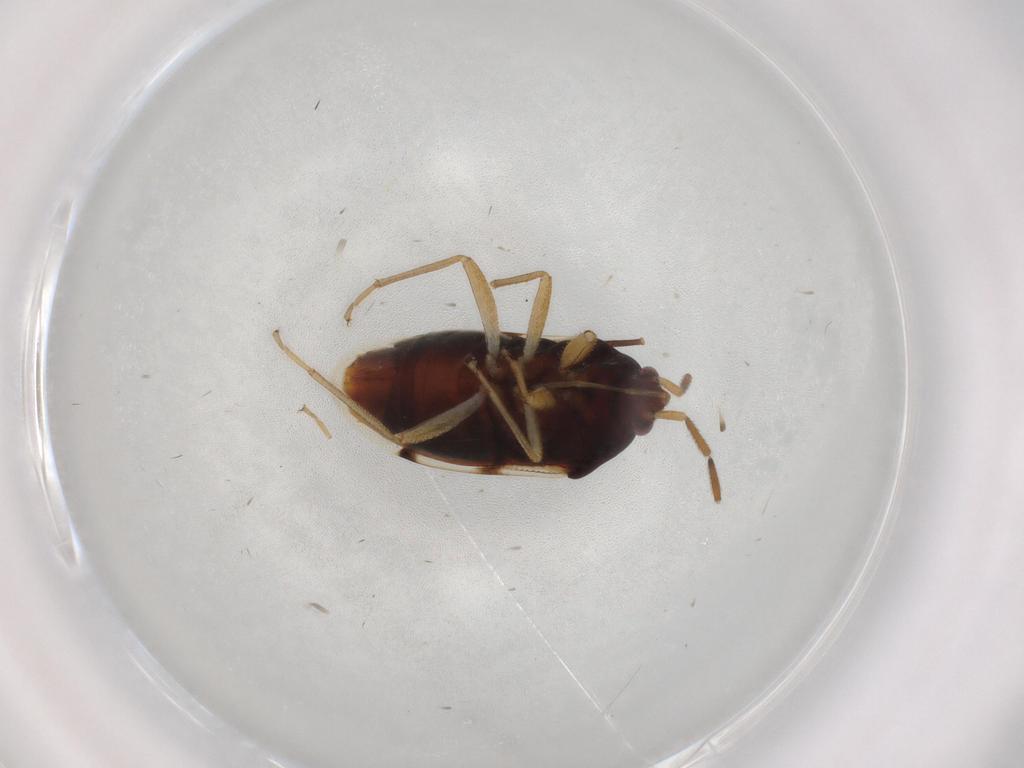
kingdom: Animalia
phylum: Arthropoda
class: Insecta
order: Hemiptera
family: Rhyparochromidae
